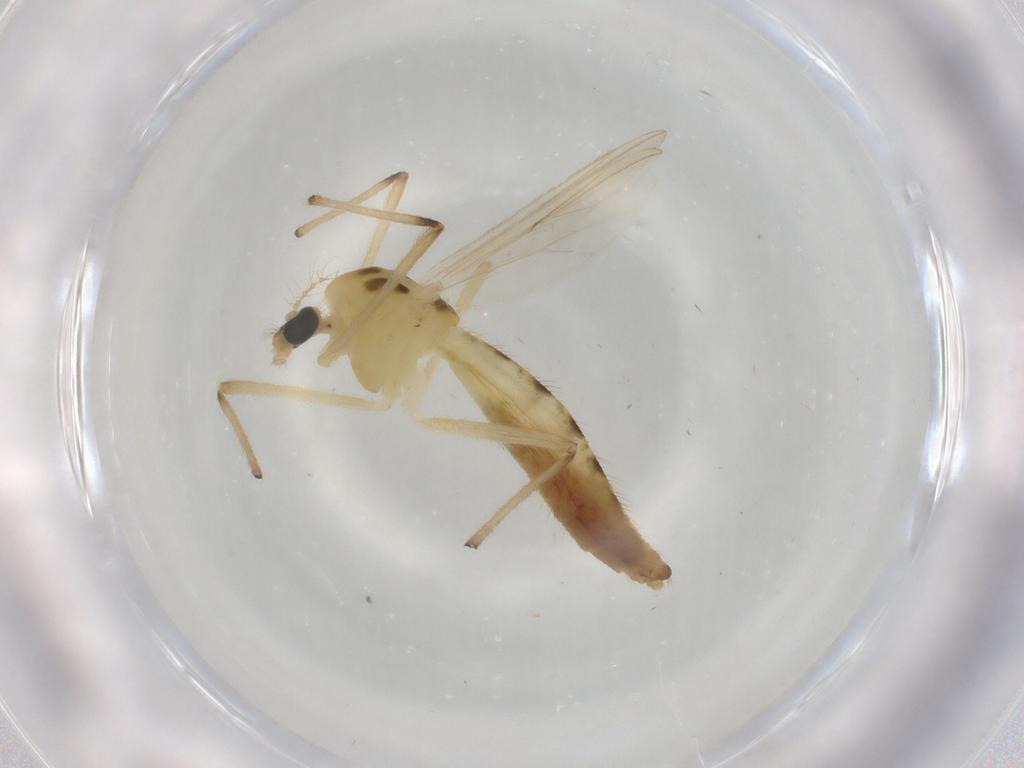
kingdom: Animalia
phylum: Arthropoda
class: Insecta
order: Diptera
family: Chironomidae
